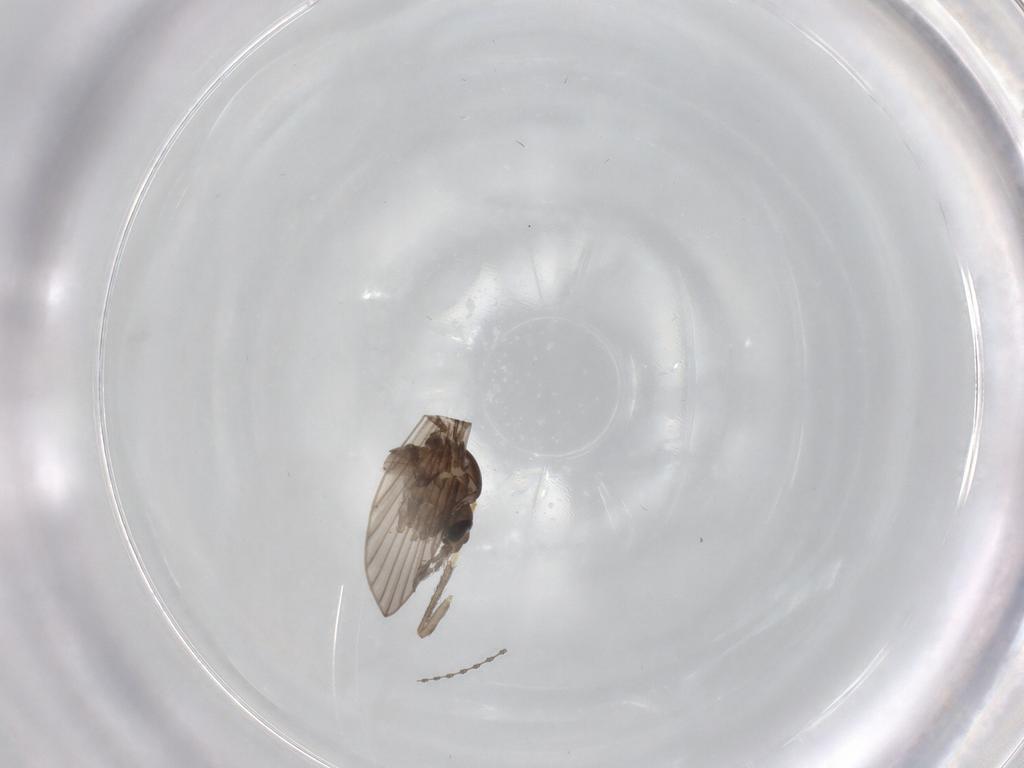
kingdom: Animalia
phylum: Arthropoda
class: Insecta
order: Diptera
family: Psychodidae
